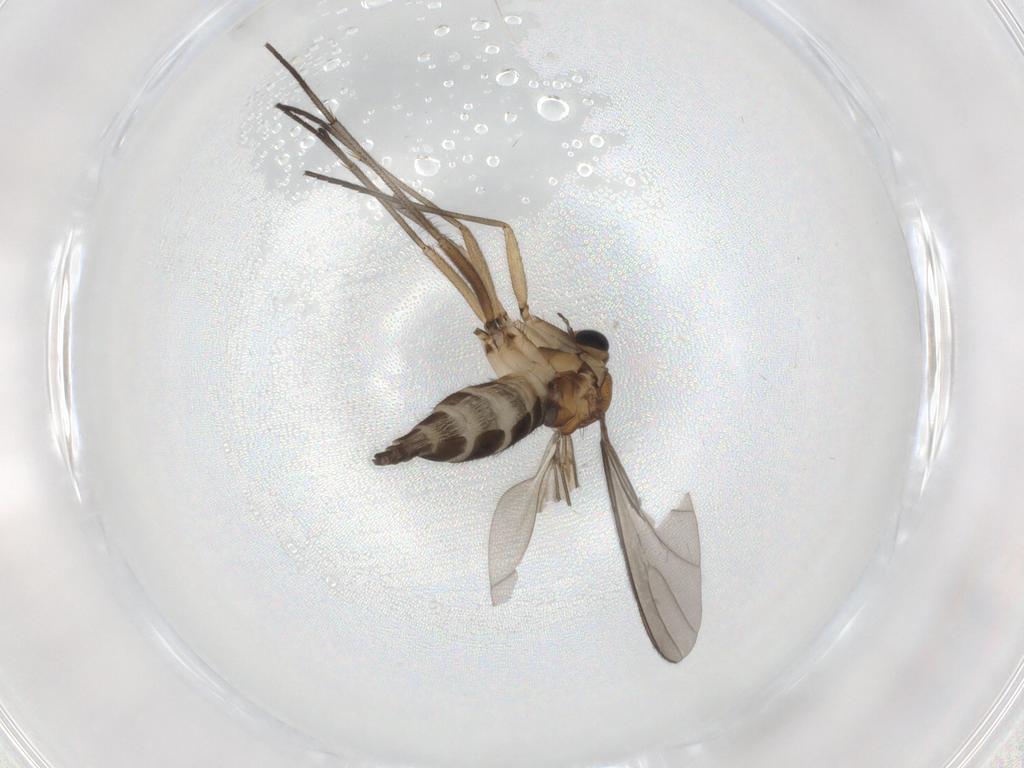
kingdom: Animalia
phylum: Arthropoda
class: Insecta
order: Diptera
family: Sciaridae
